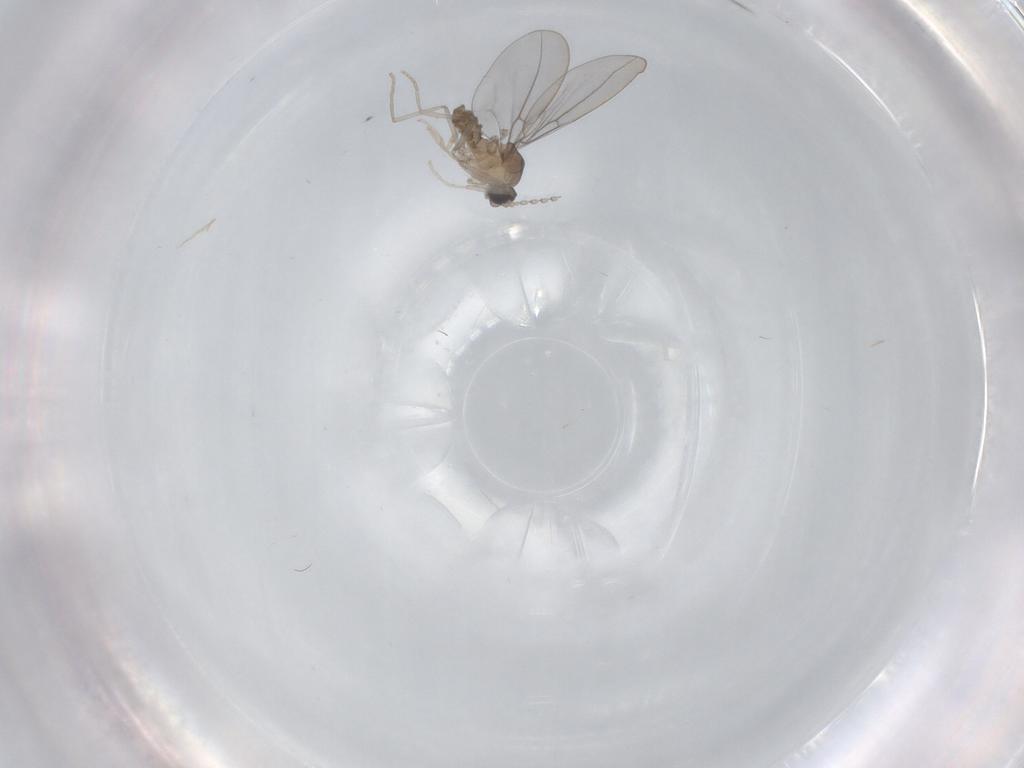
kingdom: Animalia
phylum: Arthropoda
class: Insecta
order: Diptera
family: Cecidomyiidae
